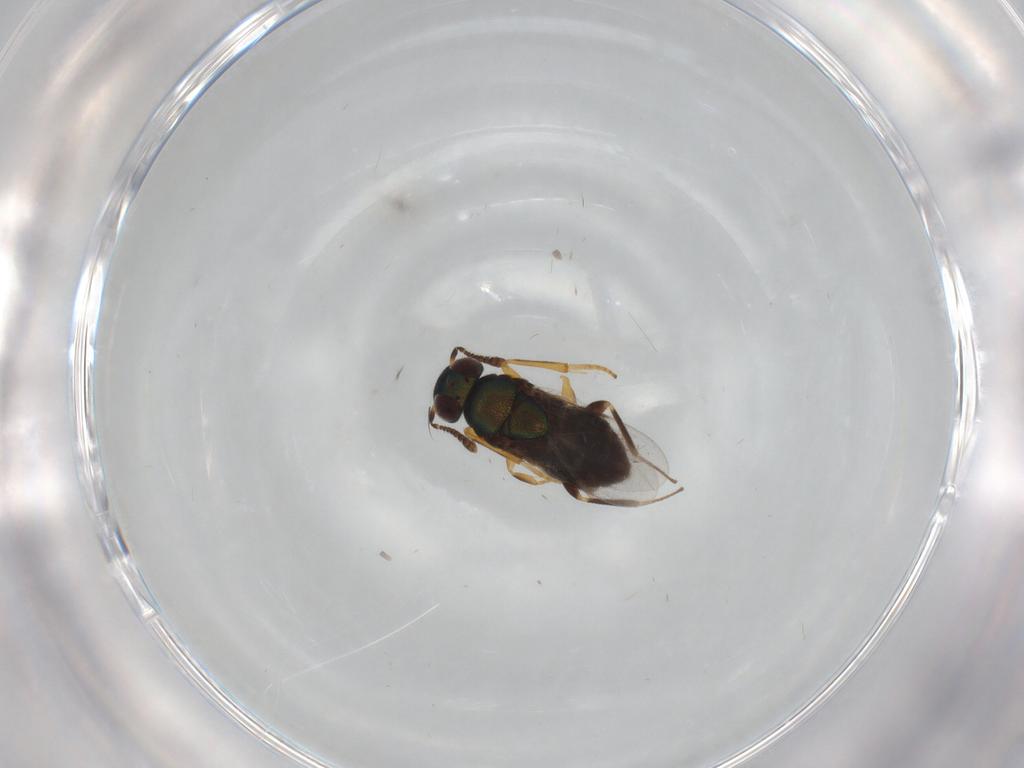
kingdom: Animalia
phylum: Arthropoda
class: Insecta
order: Hymenoptera
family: Encyrtidae
